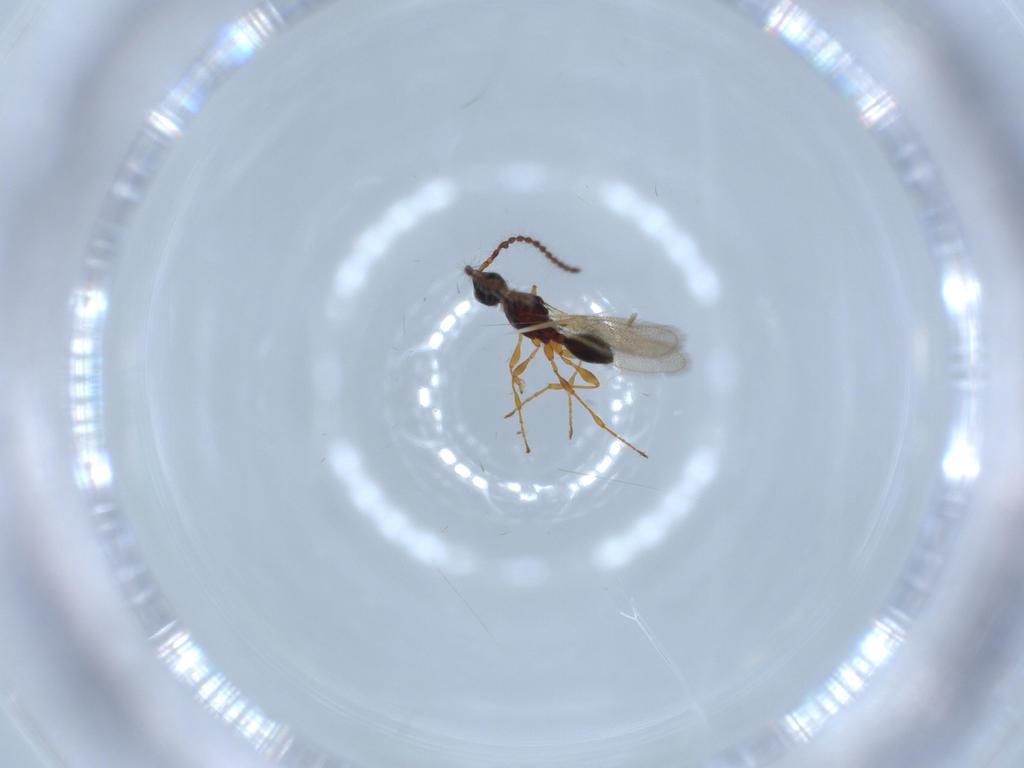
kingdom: Animalia
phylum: Arthropoda
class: Insecta
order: Hymenoptera
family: Diapriidae
